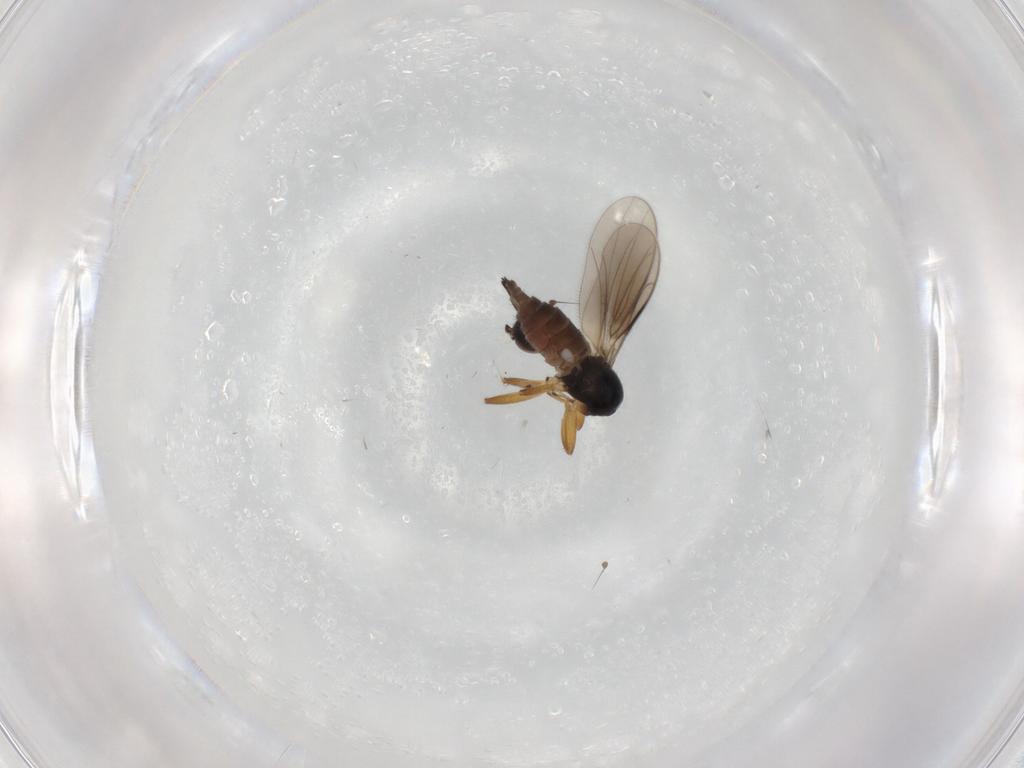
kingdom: Animalia
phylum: Arthropoda
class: Insecta
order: Diptera
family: Hybotidae
